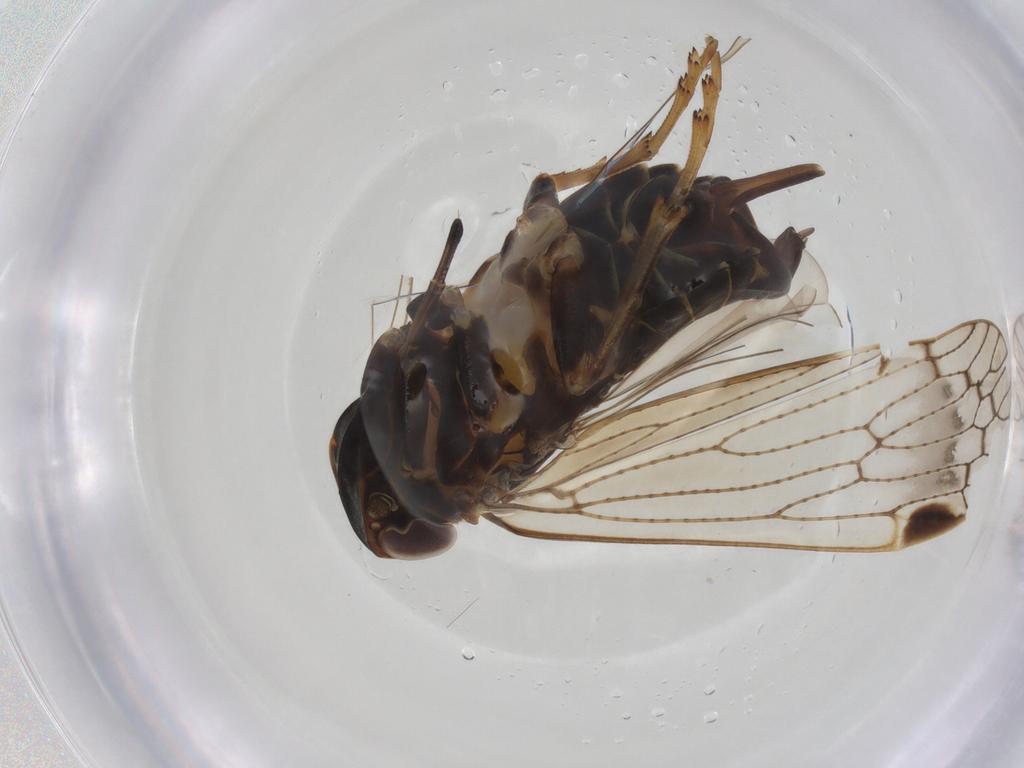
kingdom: Animalia
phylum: Arthropoda
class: Insecta
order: Hemiptera
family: Cixiidae
